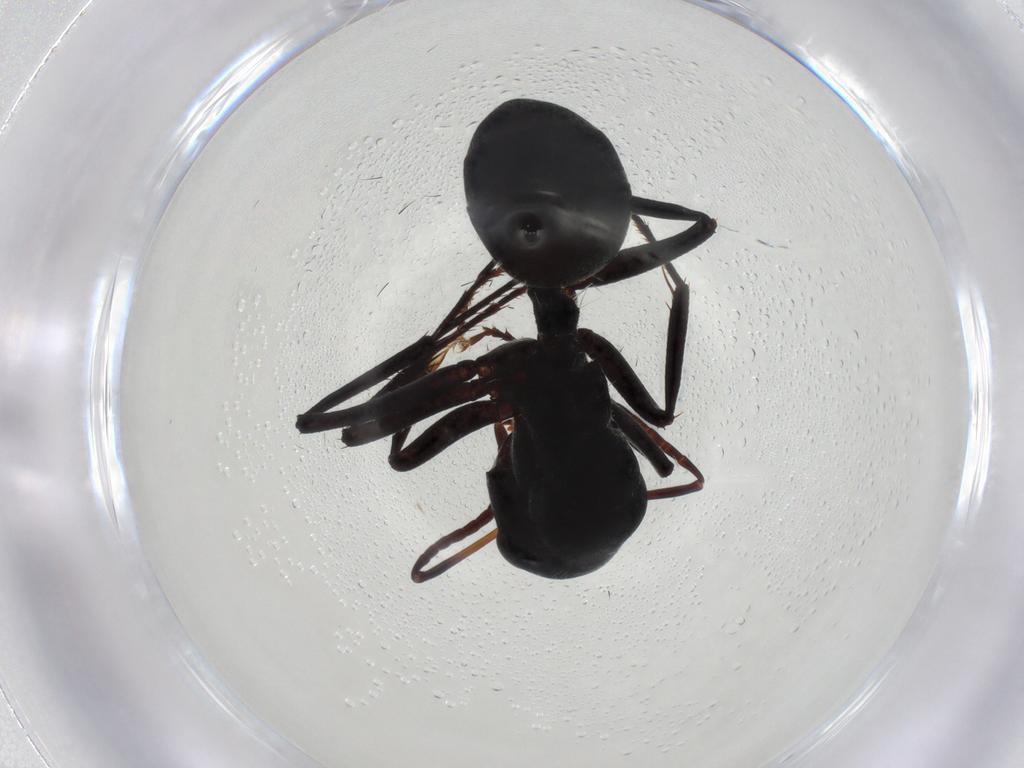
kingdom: Animalia
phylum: Arthropoda
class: Insecta
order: Hymenoptera
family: Formicidae
